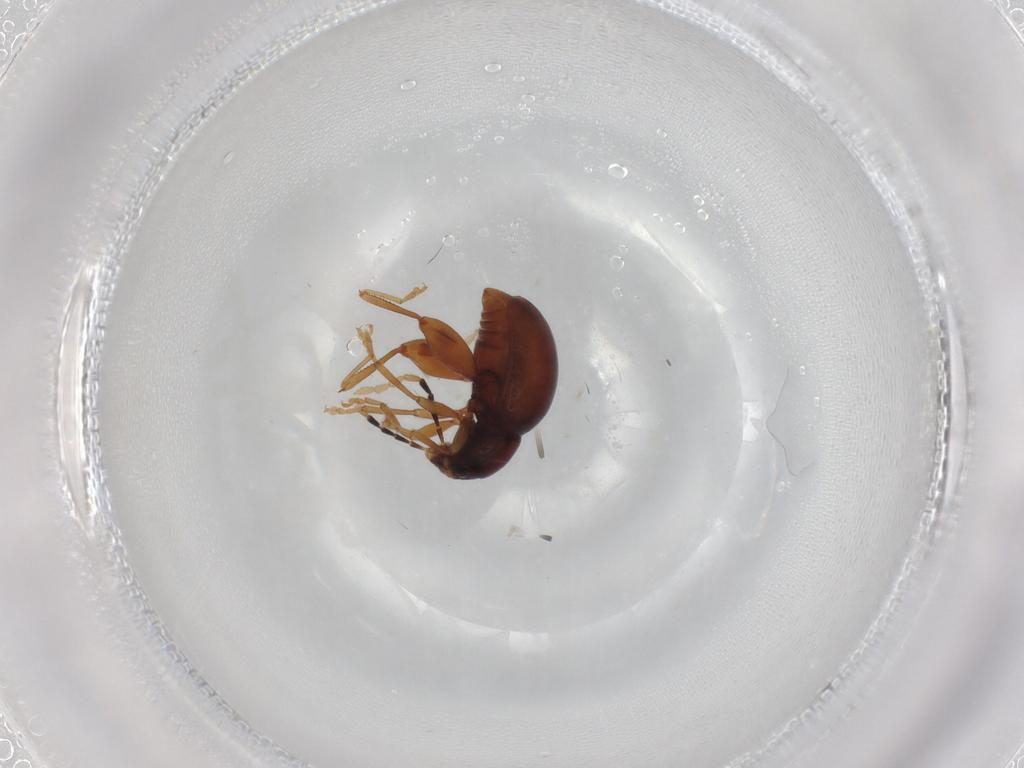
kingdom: Animalia
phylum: Arthropoda
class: Insecta
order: Coleoptera
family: Chrysomelidae
